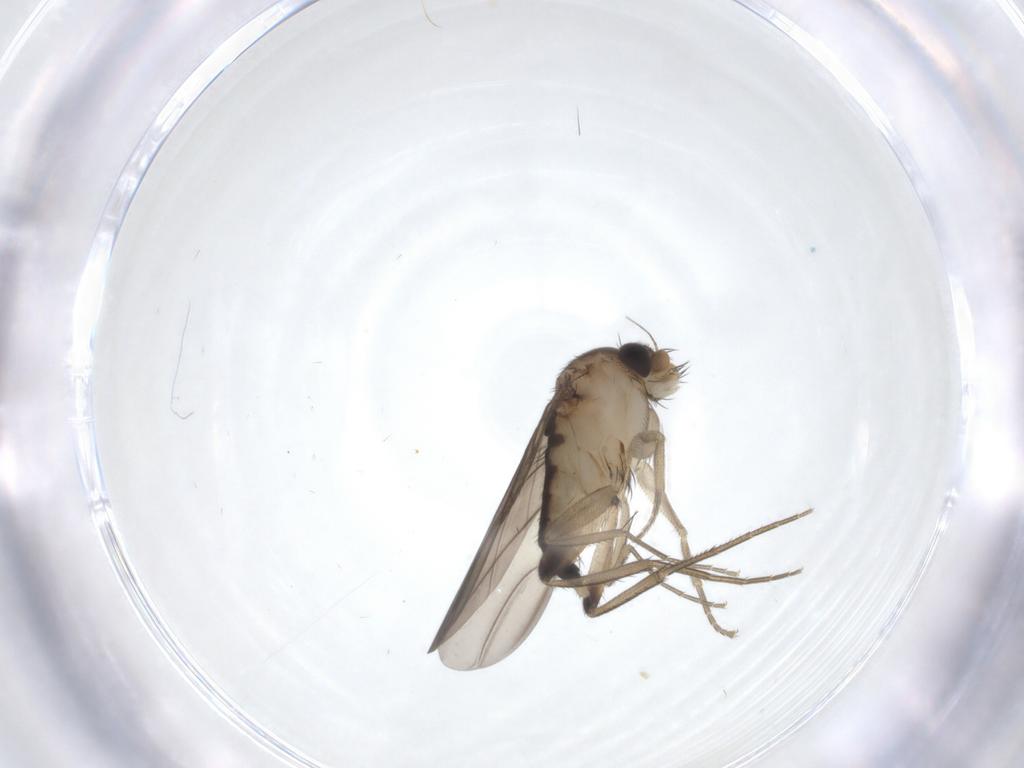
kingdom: Animalia
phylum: Arthropoda
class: Insecta
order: Diptera
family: Phoridae
